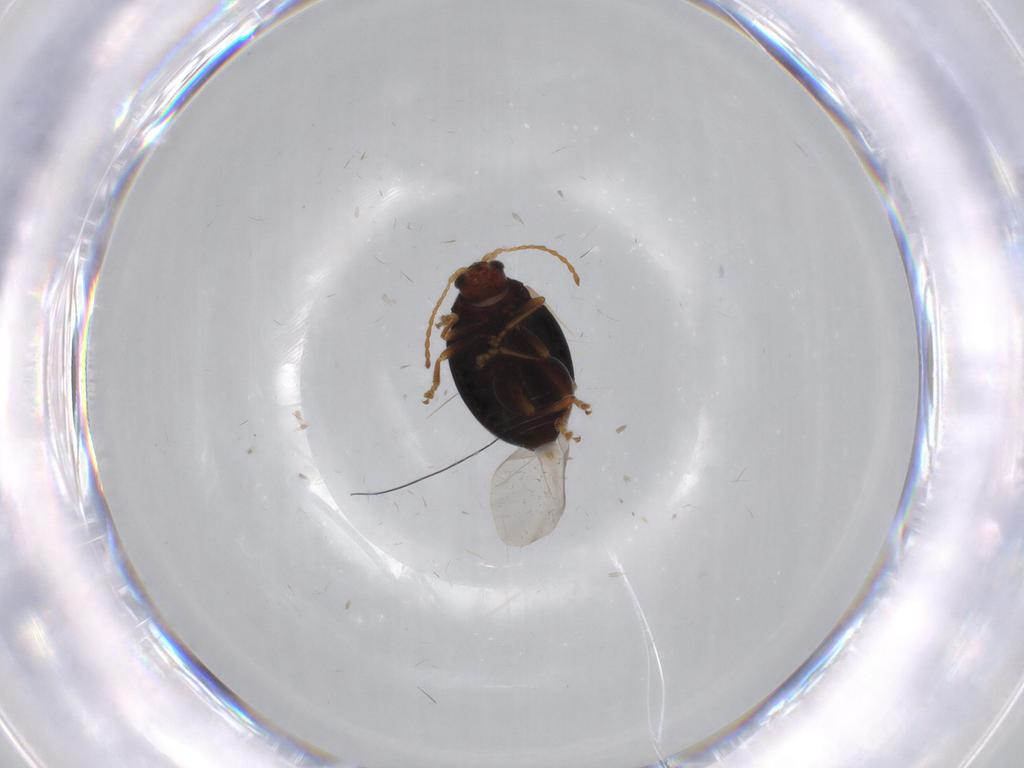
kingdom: Animalia
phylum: Arthropoda
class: Insecta
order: Coleoptera
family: Chrysomelidae
